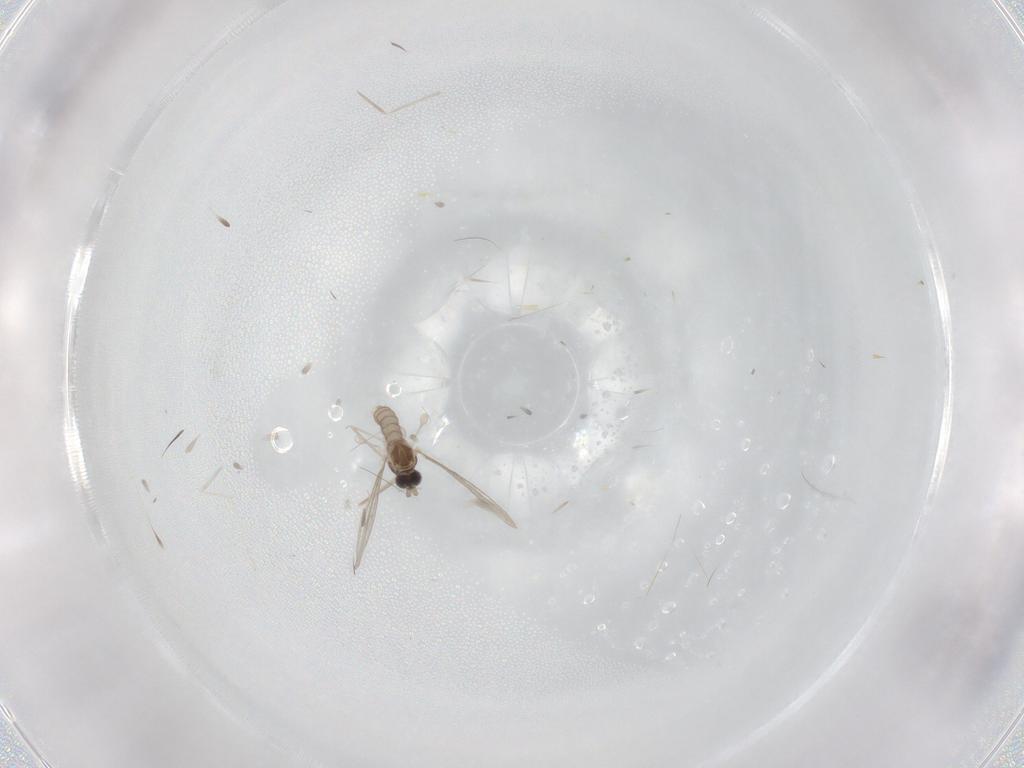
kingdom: Animalia
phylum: Arthropoda
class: Insecta
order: Diptera
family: Cecidomyiidae
